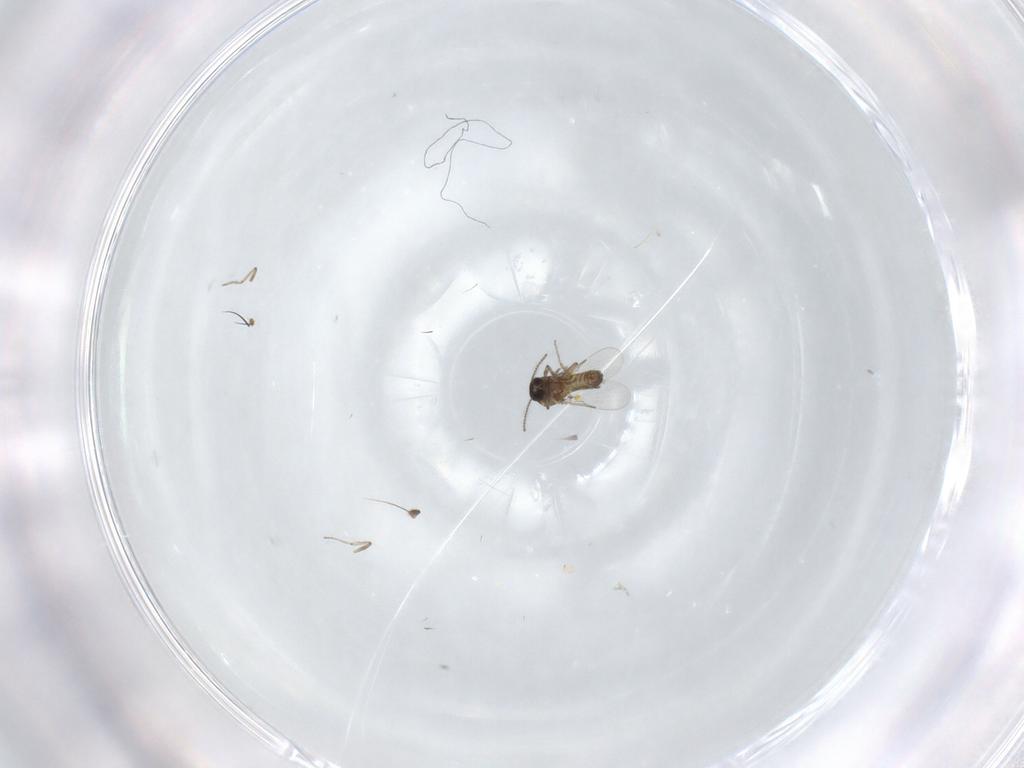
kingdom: Animalia
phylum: Arthropoda
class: Insecta
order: Diptera
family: Ceratopogonidae
